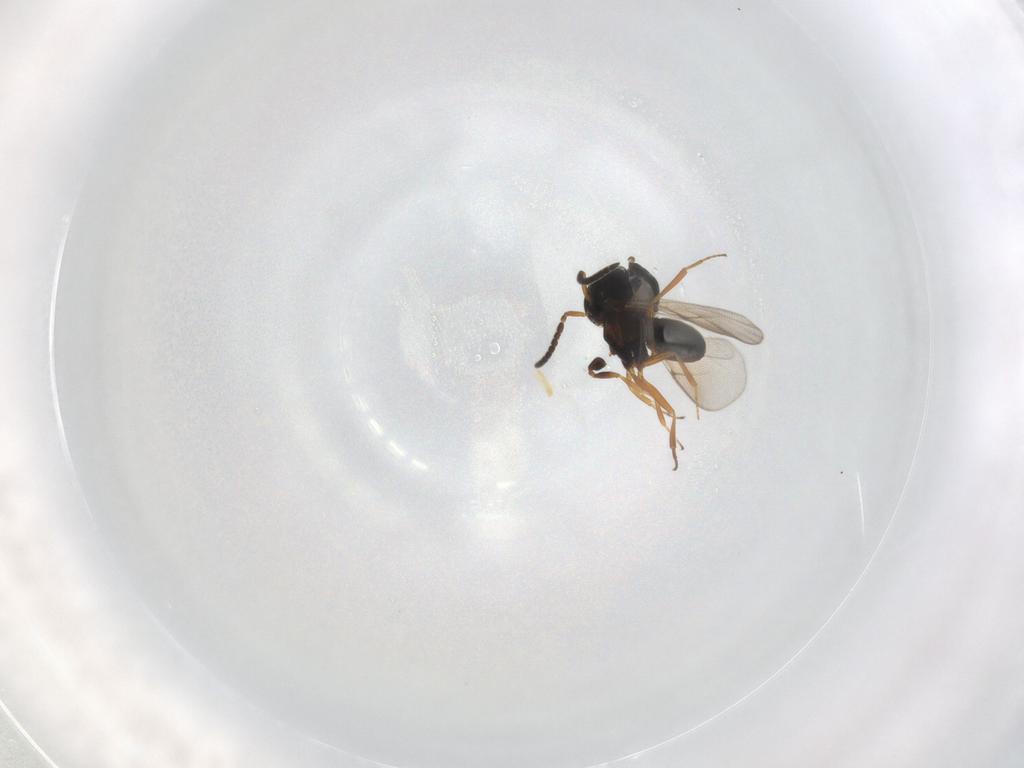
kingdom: Animalia
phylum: Arthropoda
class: Insecta
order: Hymenoptera
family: Scelionidae
